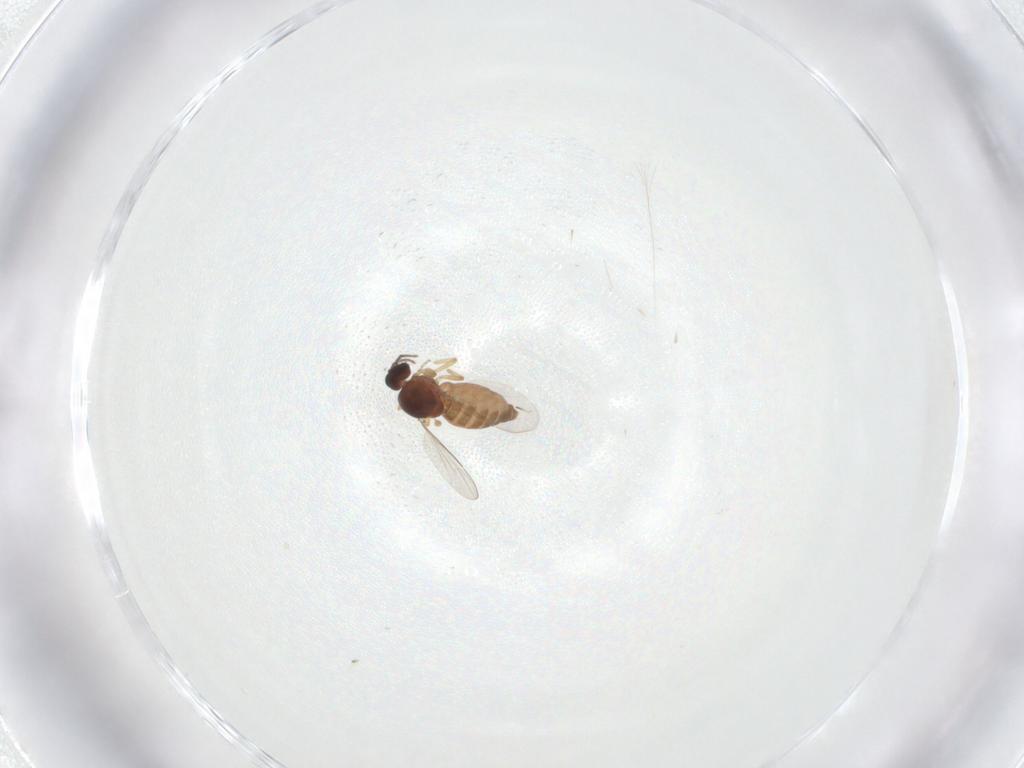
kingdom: Animalia
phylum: Arthropoda
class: Insecta
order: Diptera
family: Ceratopogonidae
